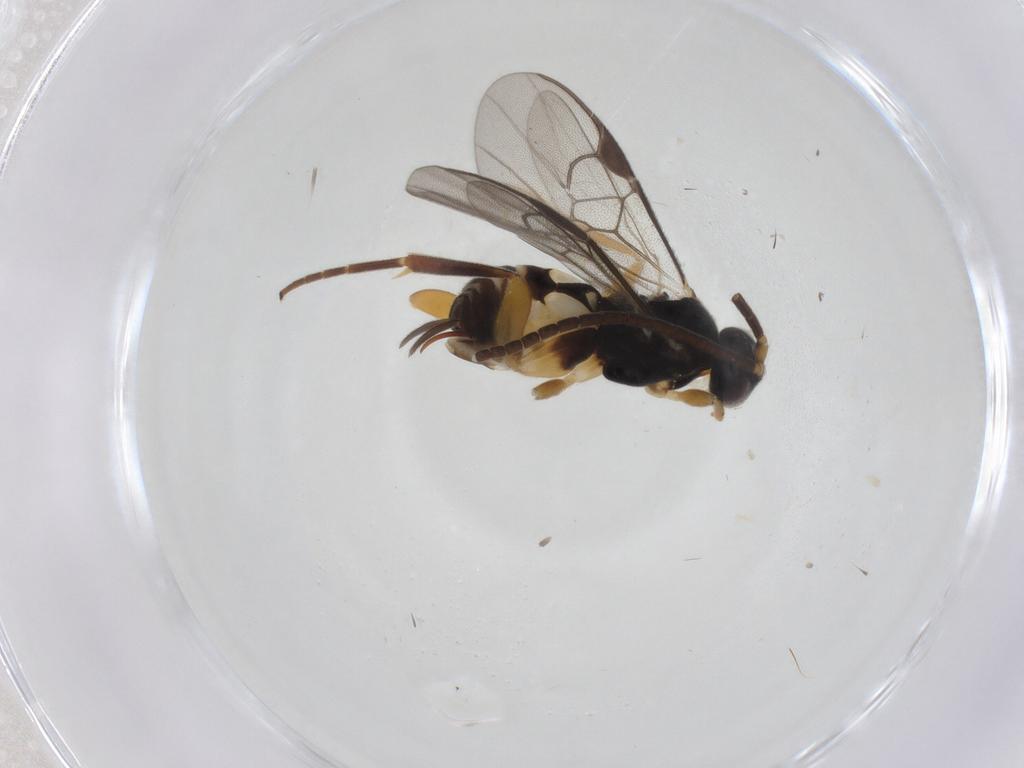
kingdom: Animalia
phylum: Arthropoda
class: Insecta
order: Hymenoptera
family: Braconidae
